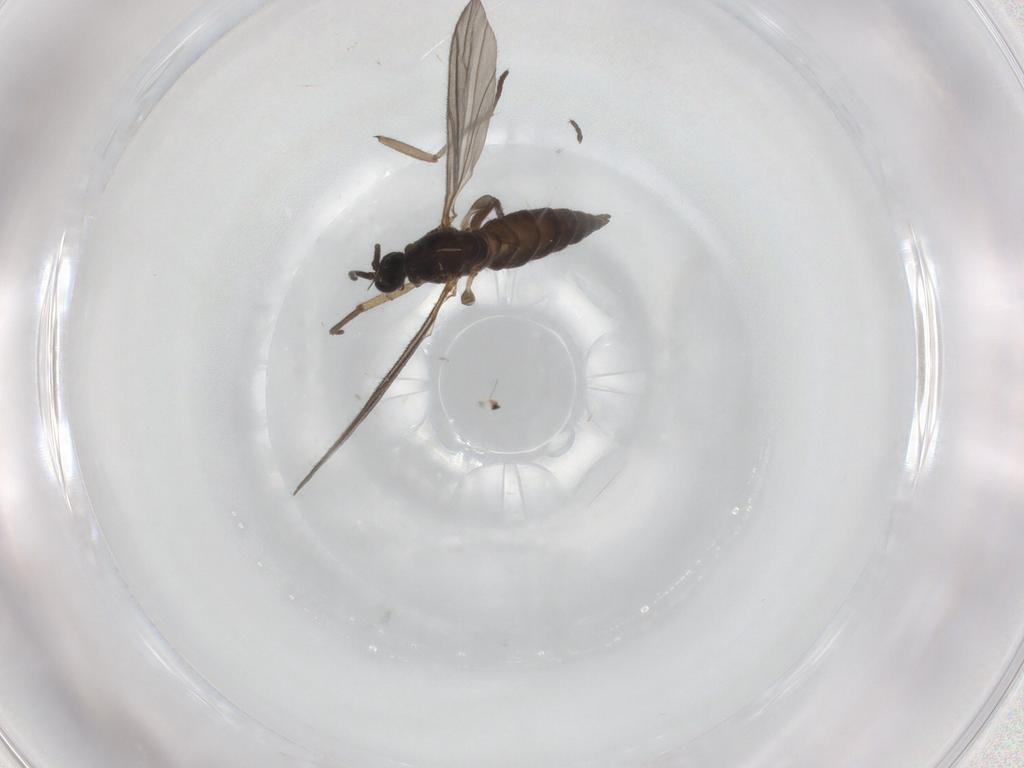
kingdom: Animalia
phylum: Arthropoda
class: Insecta
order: Diptera
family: Sciaridae
